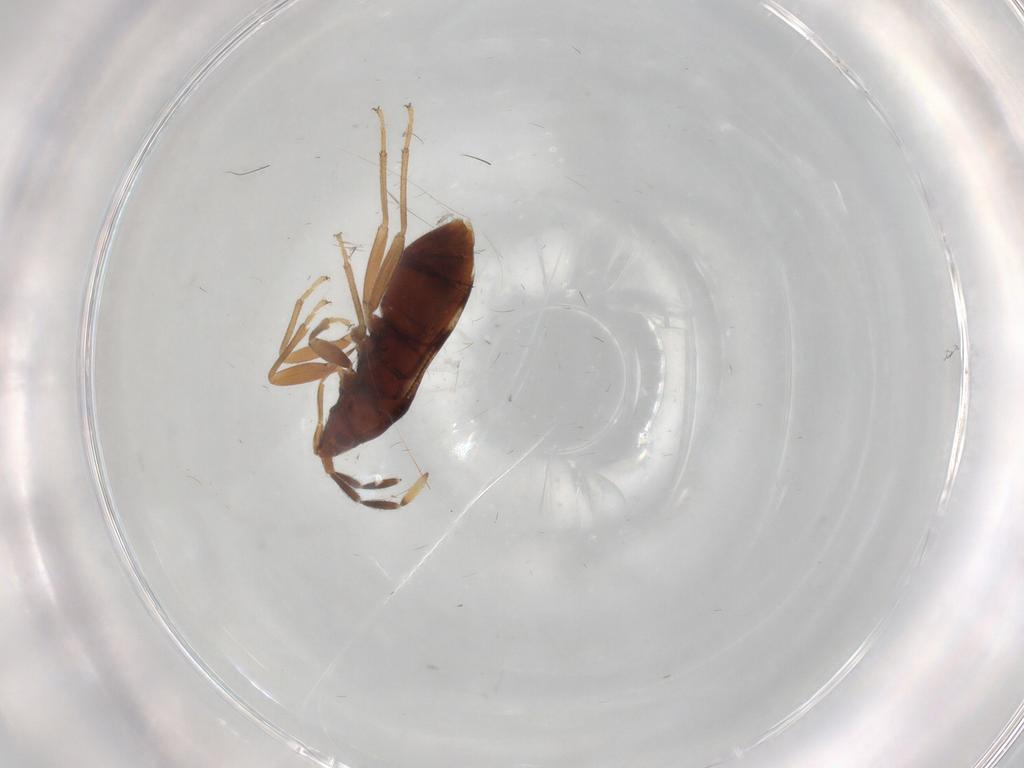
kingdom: Animalia
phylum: Arthropoda
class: Insecta
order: Hemiptera
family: Rhyparochromidae
